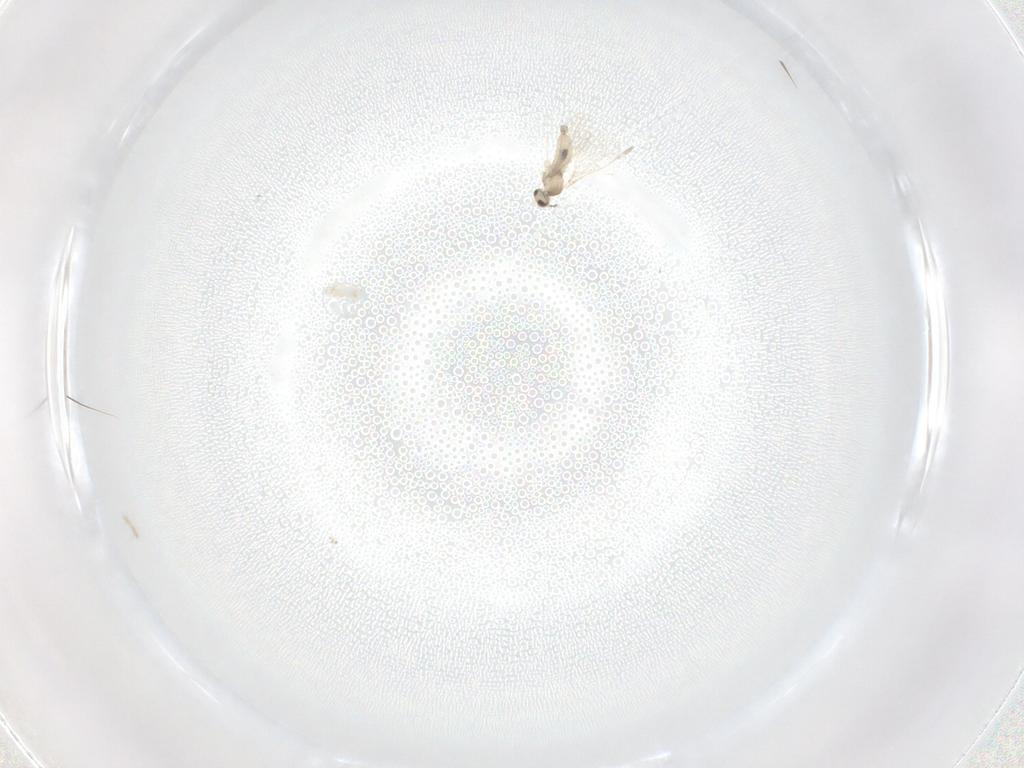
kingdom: Animalia
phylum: Arthropoda
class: Insecta
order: Diptera
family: Cecidomyiidae
